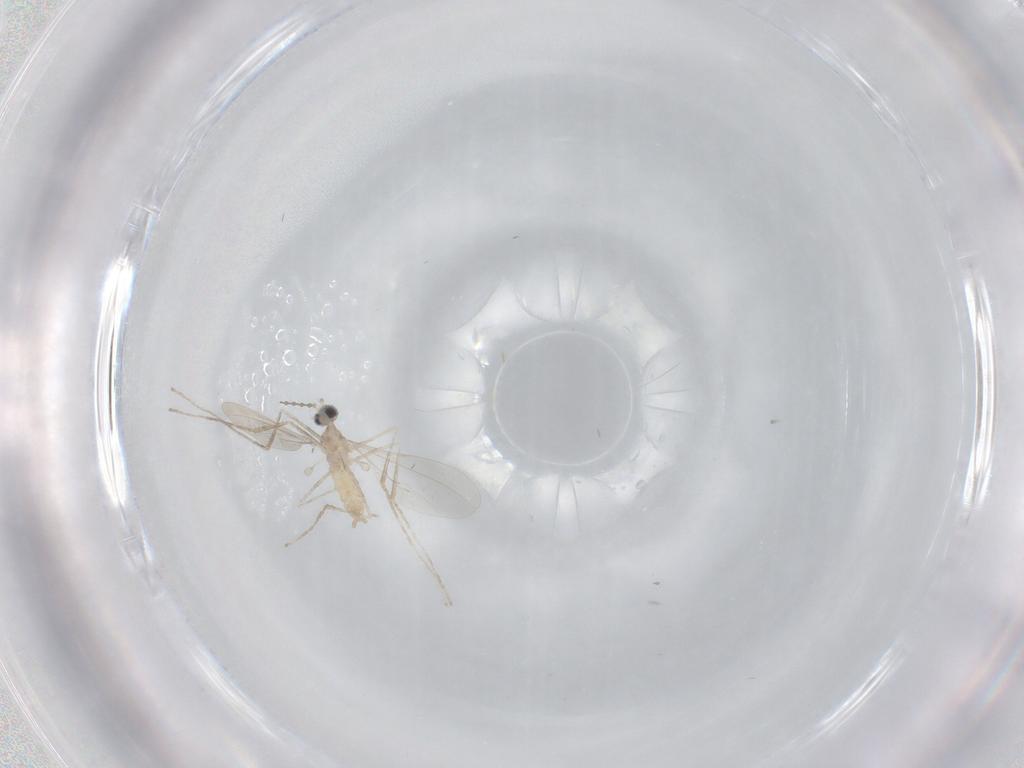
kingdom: Animalia
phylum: Arthropoda
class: Insecta
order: Diptera
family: Cecidomyiidae
